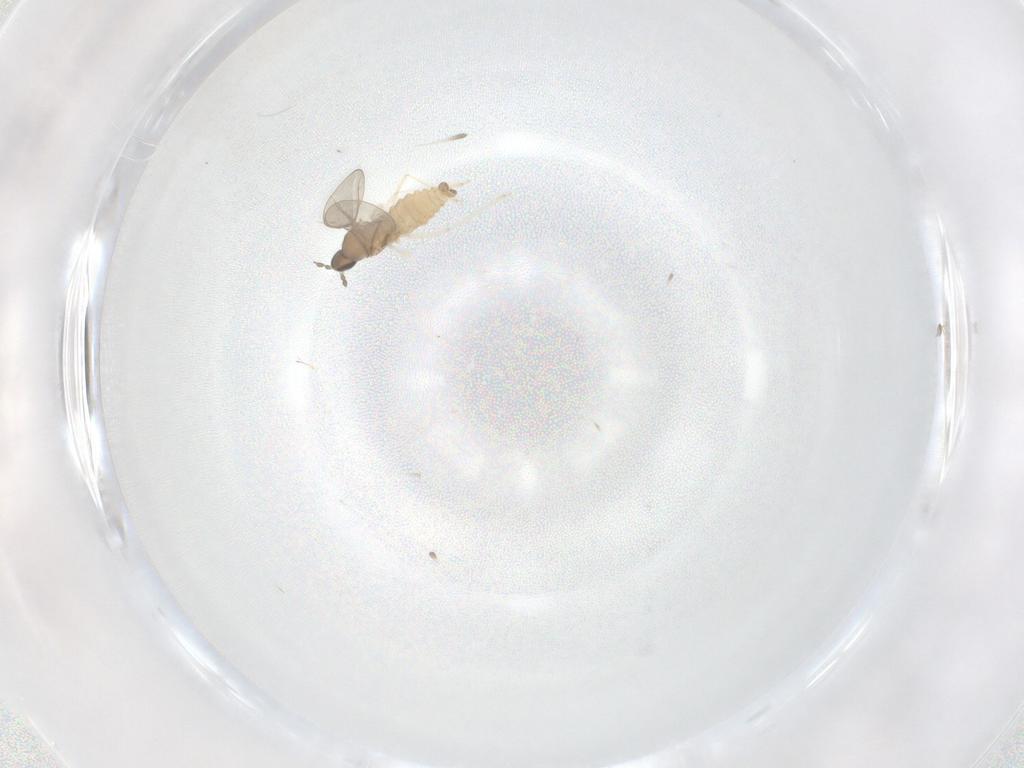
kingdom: Animalia
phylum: Arthropoda
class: Insecta
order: Diptera
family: Cecidomyiidae
